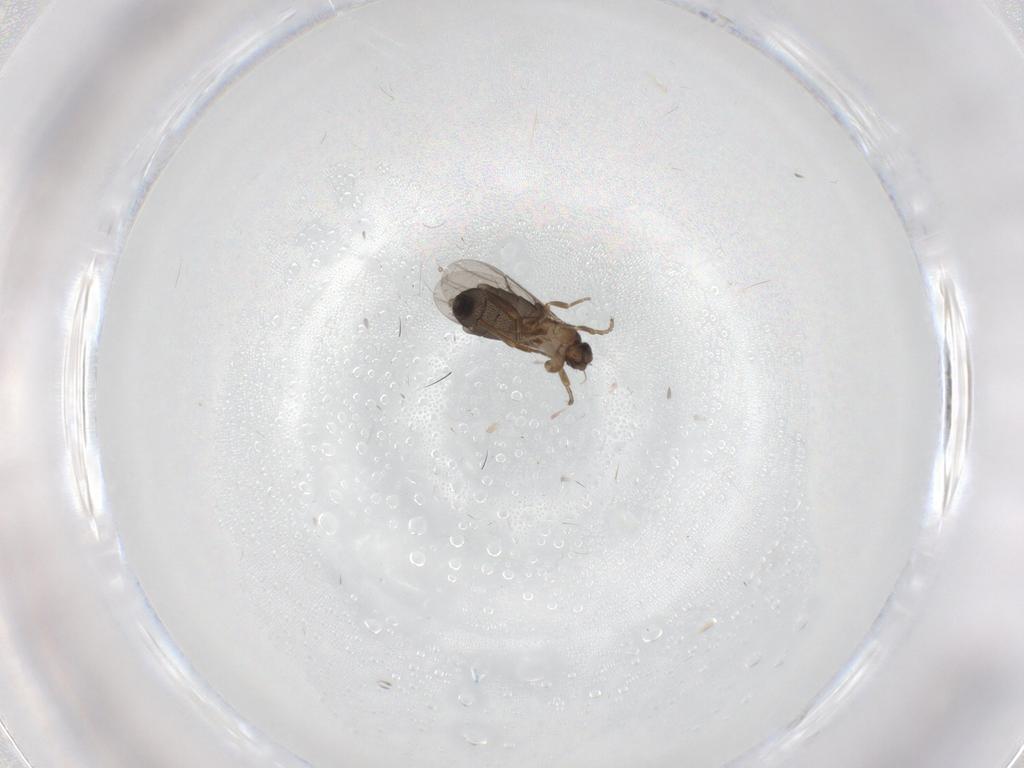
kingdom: Animalia
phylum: Arthropoda
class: Insecta
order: Diptera
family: Phoridae
